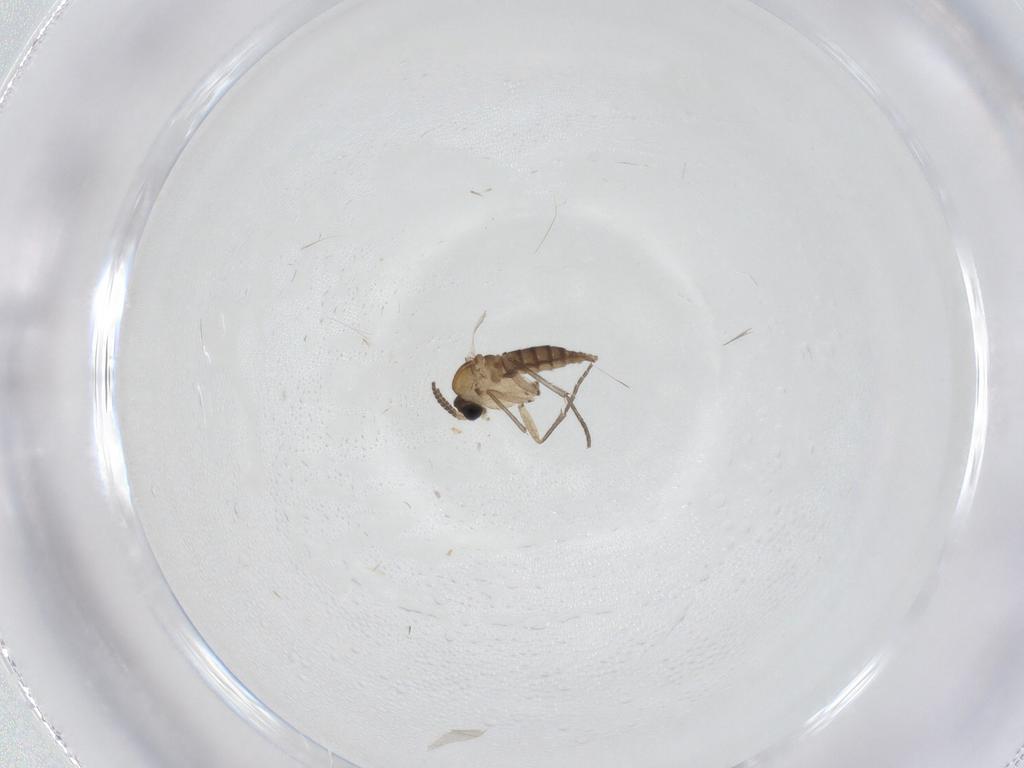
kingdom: Animalia
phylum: Arthropoda
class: Insecta
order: Diptera
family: Sciaridae
